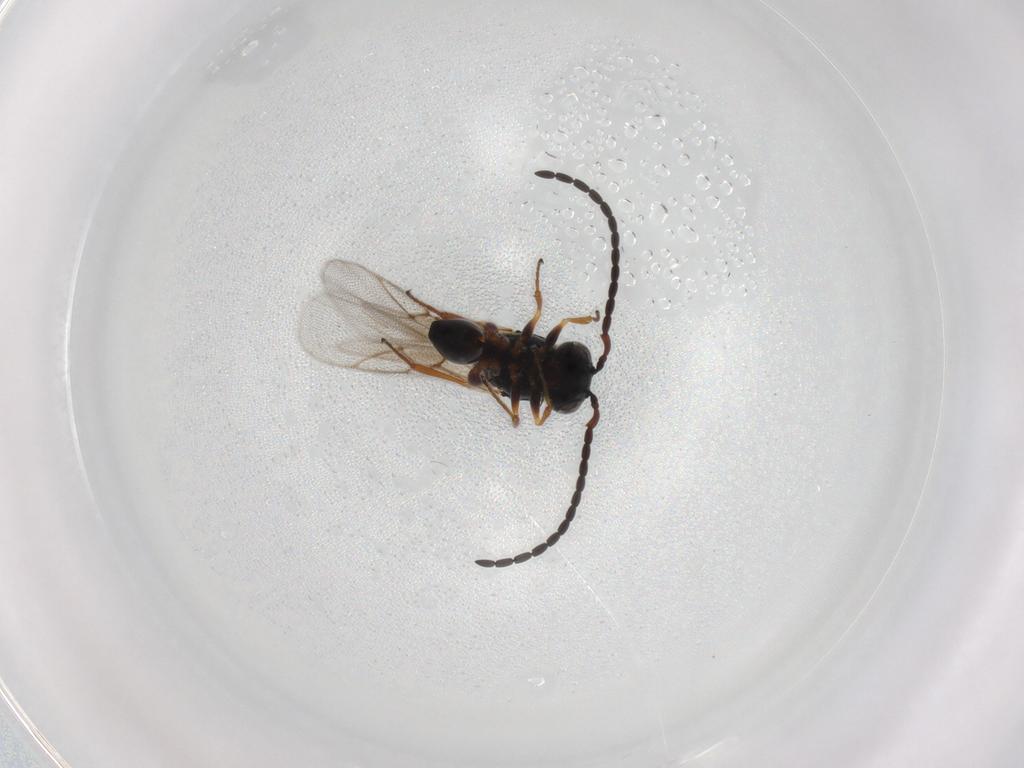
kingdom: Animalia
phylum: Arthropoda
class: Insecta
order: Hymenoptera
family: Figitidae
